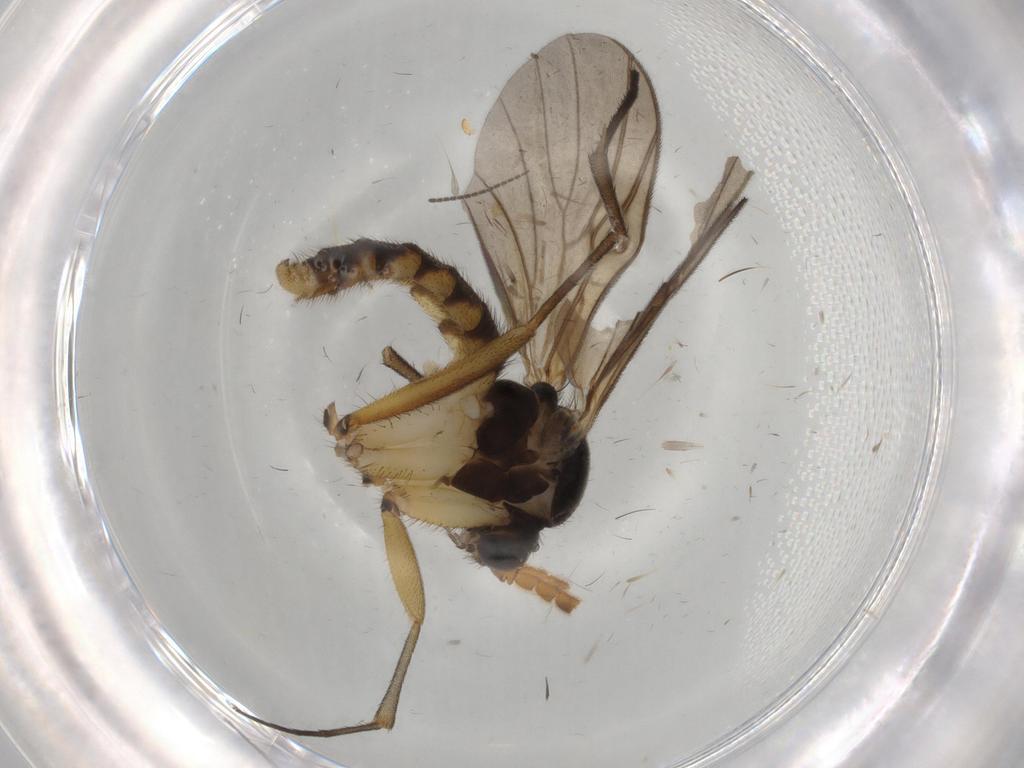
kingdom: Animalia
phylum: Arthropoda
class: Insecta
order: Diptera
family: Chironomidae
